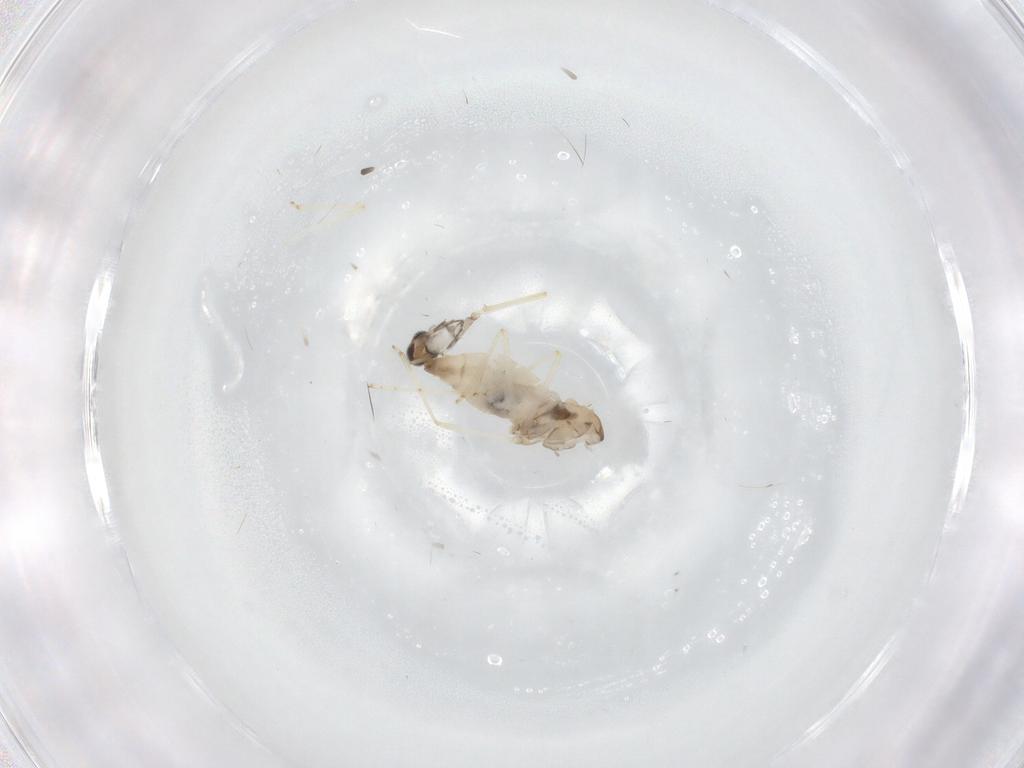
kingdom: Animalia
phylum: Arthropoda
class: Insecta
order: Diptera
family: Cecidomyiidae
